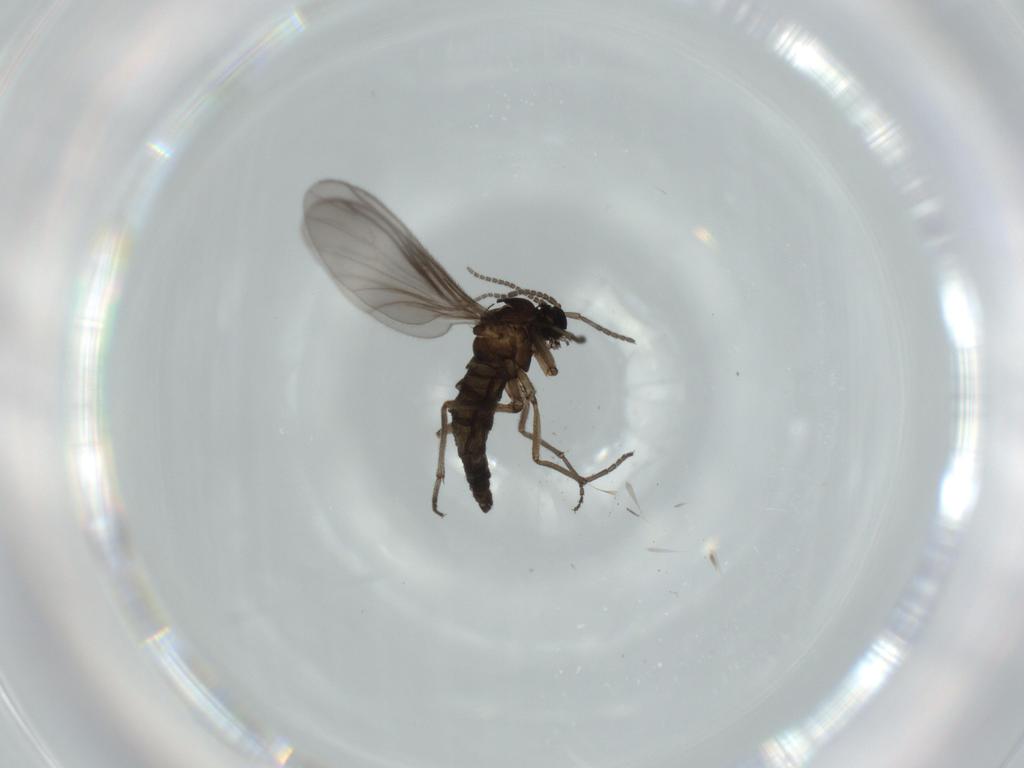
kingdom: Animalia
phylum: Arthropoda
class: Insecta
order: Diptera
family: Sciaridae
